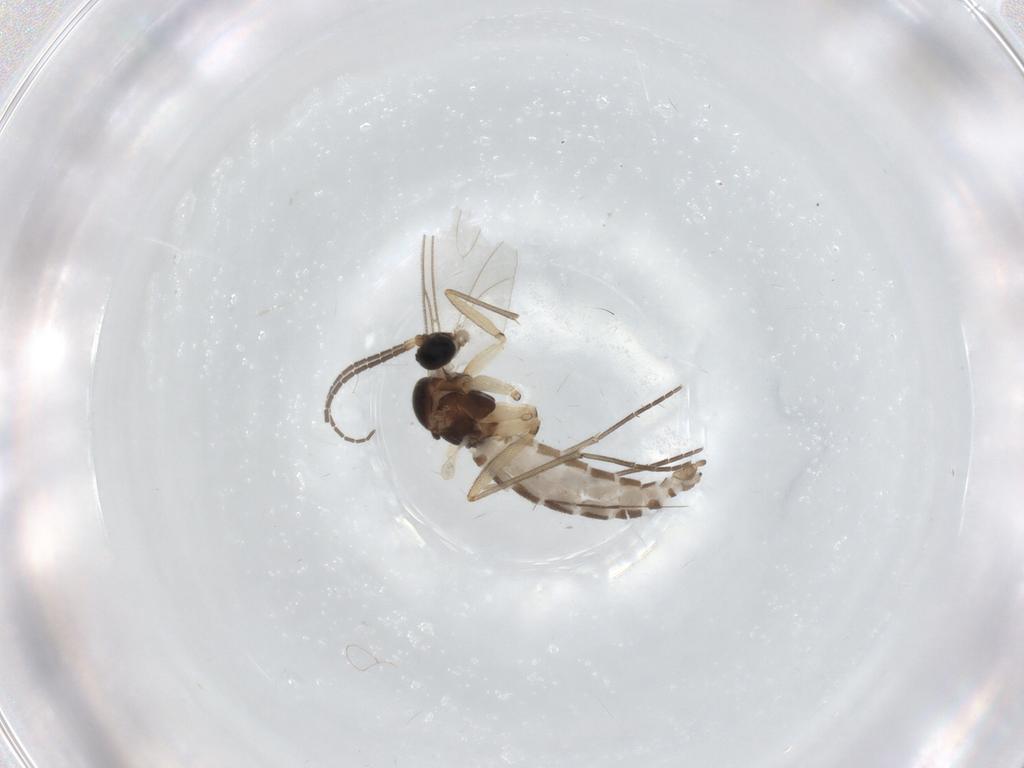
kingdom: Animalia
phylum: Arthropoda
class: Insecta
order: Diptera
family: Sciaridae
